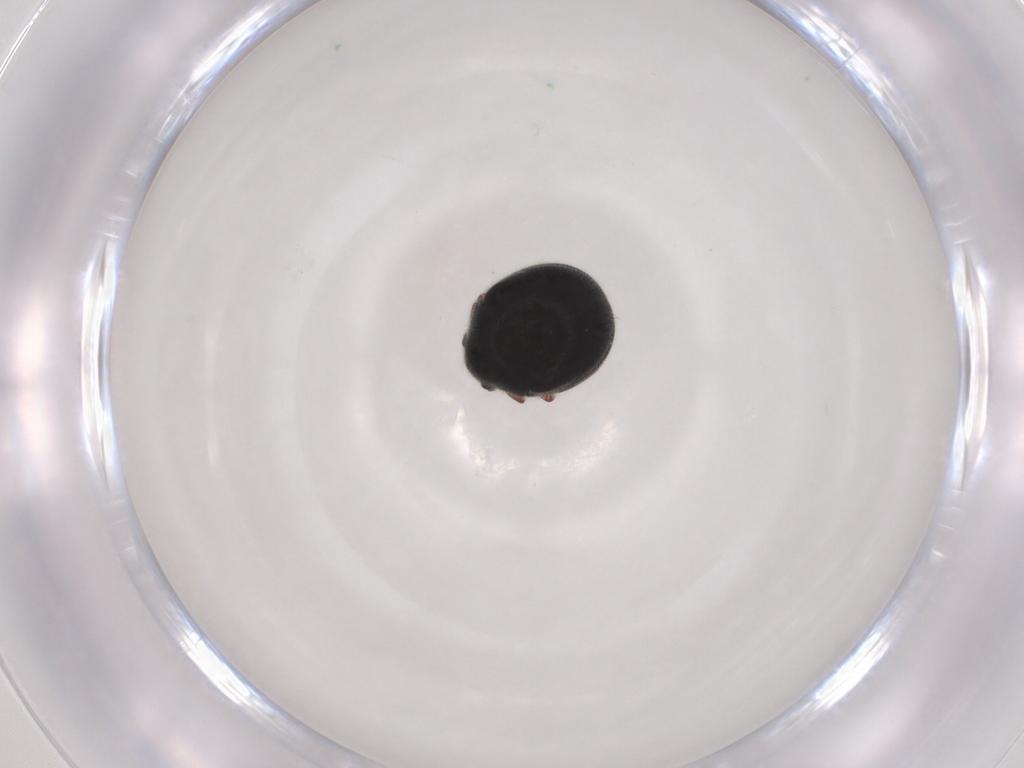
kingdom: Animalia
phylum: Arthropoda
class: Insecta
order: Coleoptera
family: Ptinidae
